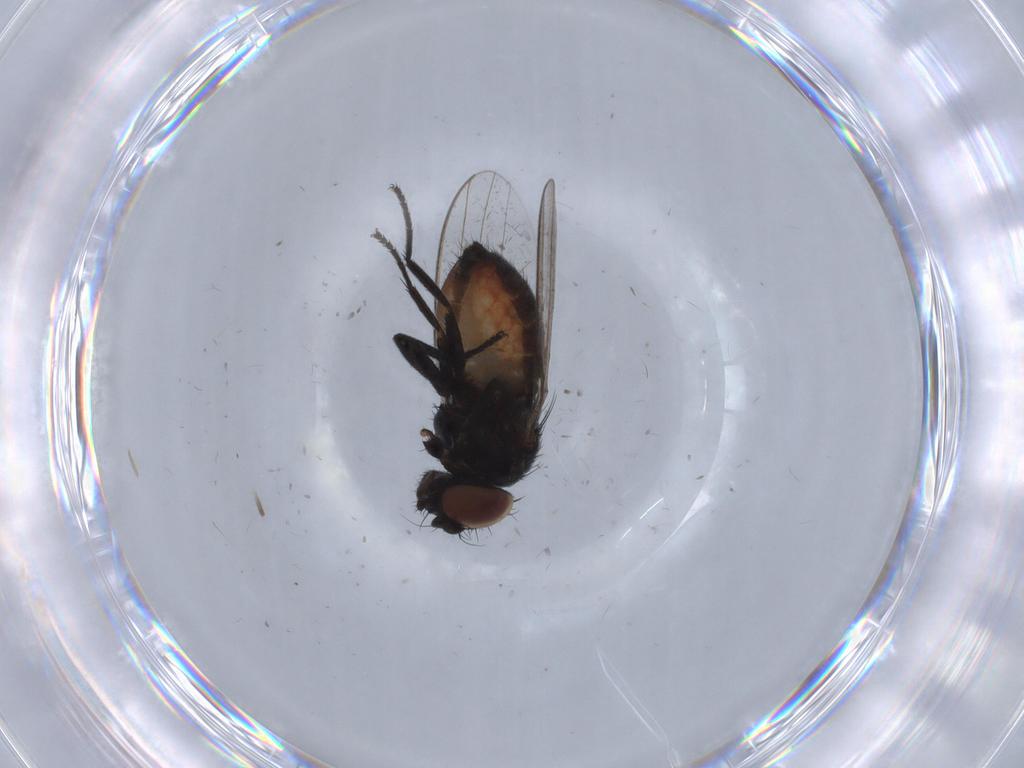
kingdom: Animalia
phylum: Arthropoda
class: Insecta
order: Diptera
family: Milichiidae
